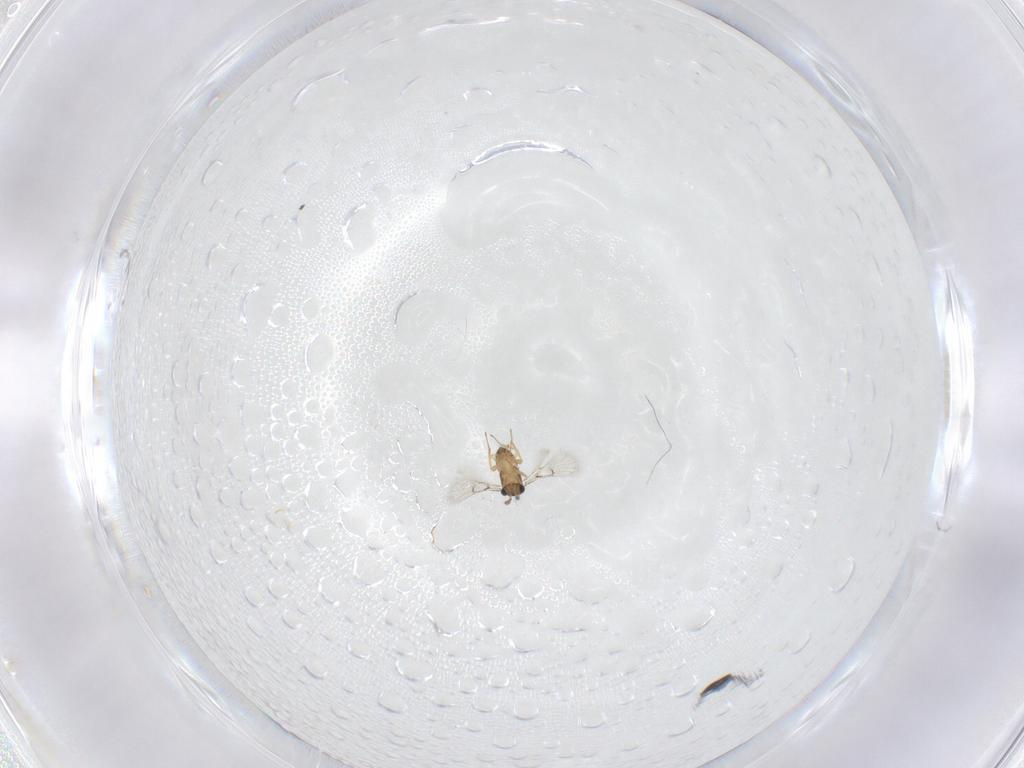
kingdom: Animalia
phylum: Arthropoda
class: Insecta
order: Hymenoptera
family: Trichogrammatidae
